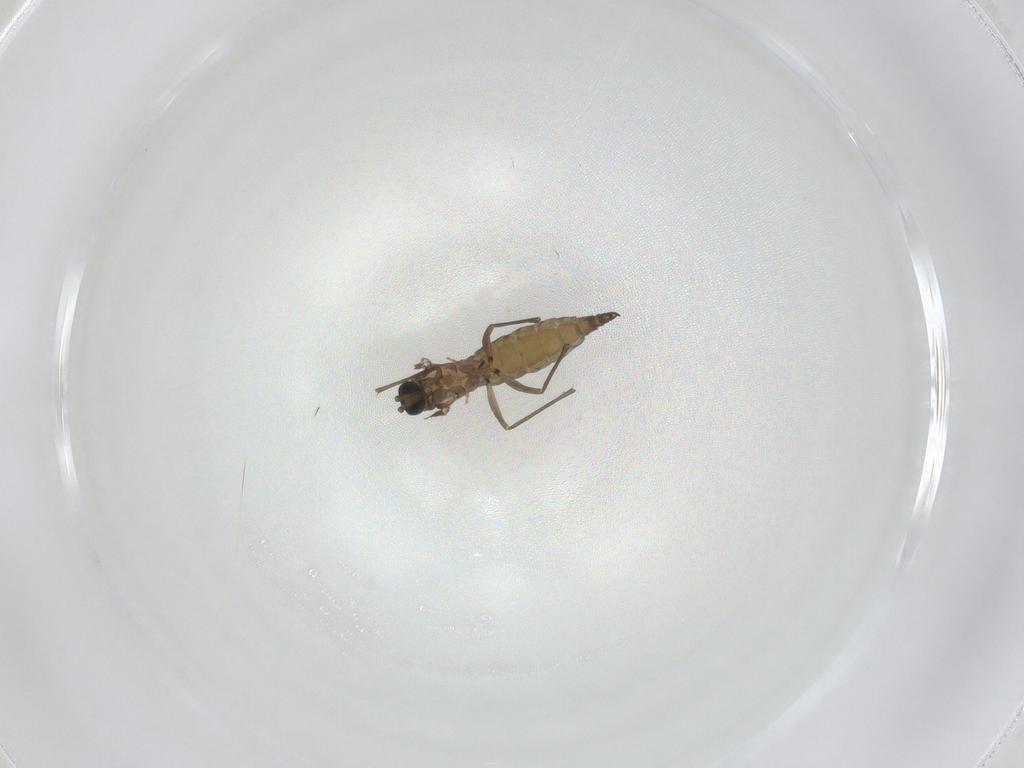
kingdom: Animalia
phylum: Arthropoda
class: Insecta
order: Diptera
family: Sciaridae
